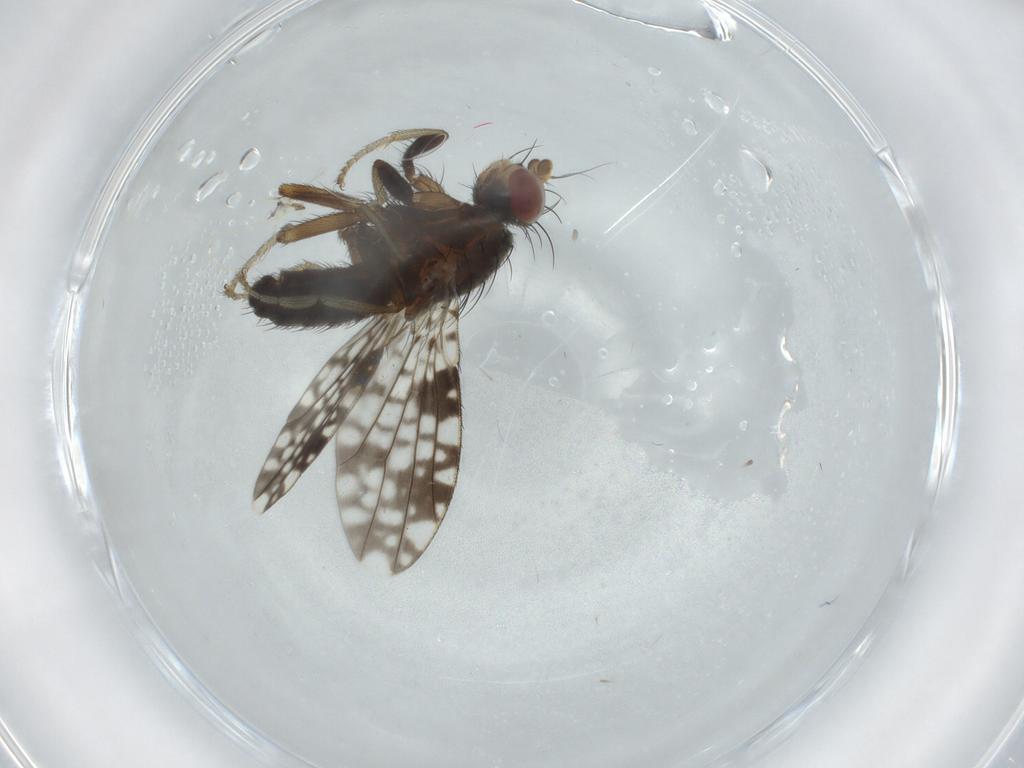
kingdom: Animalia
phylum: Arthropoda
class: Insecta
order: Diptera
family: Tephritidae
